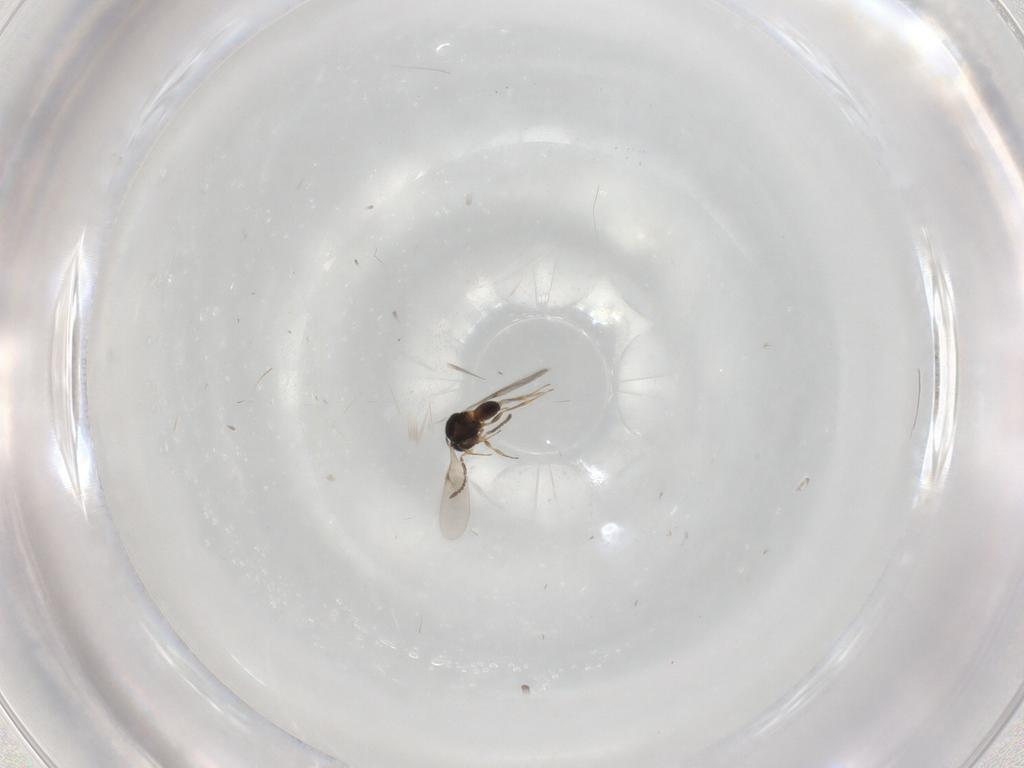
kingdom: Animalia
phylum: Arthropoda
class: Insecta
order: Hymenoptera
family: Scelionidae
